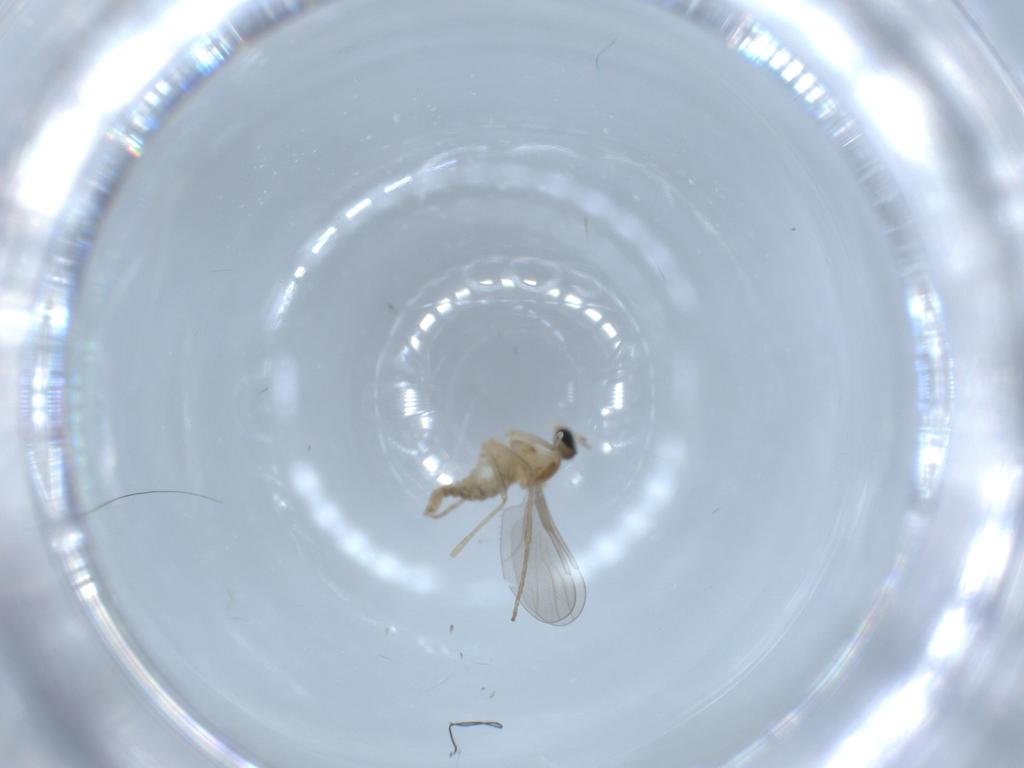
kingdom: Animalia
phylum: Arthropoda
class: Insecta
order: Diptera
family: Cecidomyiidae
